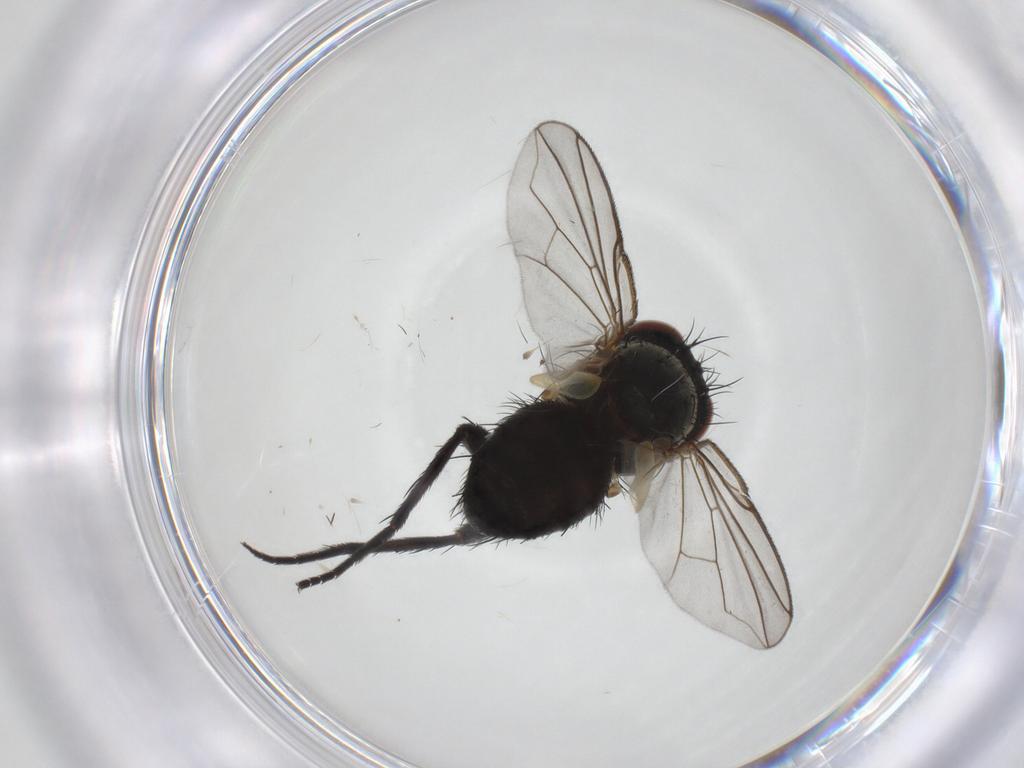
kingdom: Animalia
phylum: Arthropoda
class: Insecta
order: Diptera
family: Tachinidae
